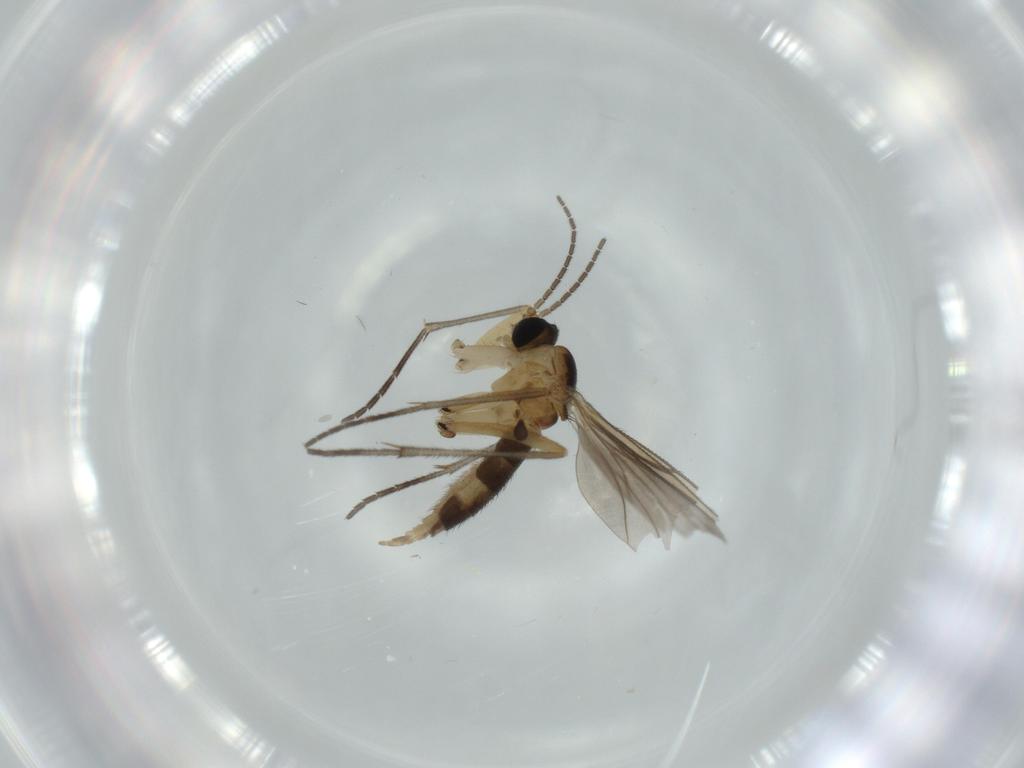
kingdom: Animalia
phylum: Arthropoda
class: Insecta
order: Diptera
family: Sciaridae
